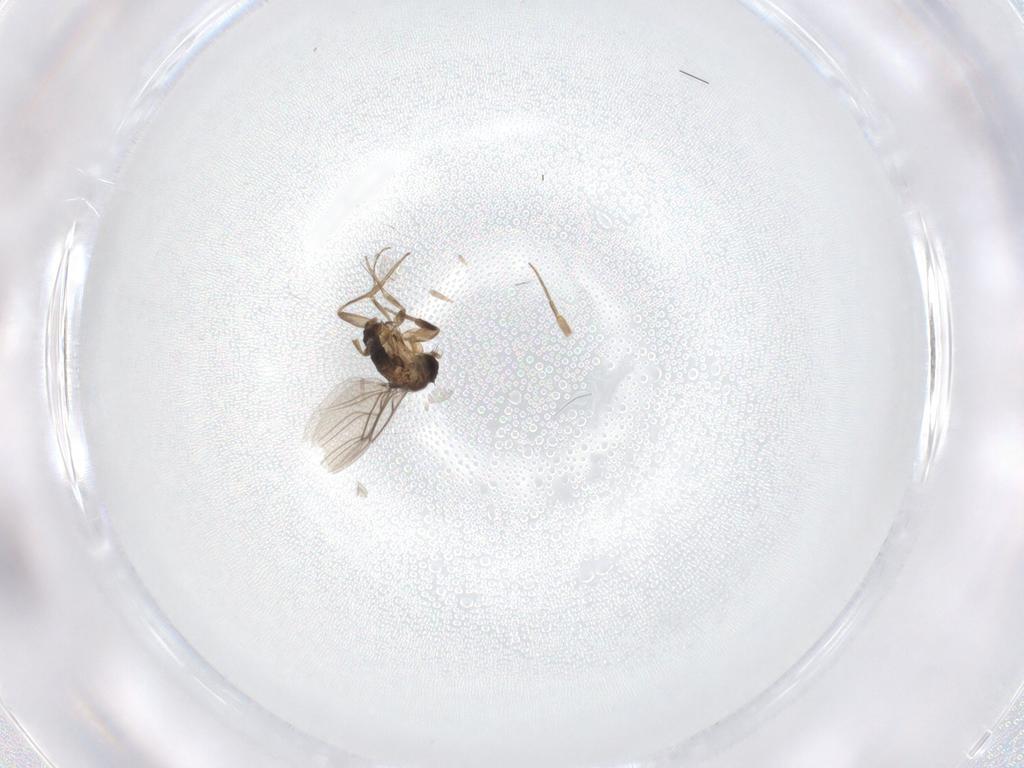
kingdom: Animalia
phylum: Arthropoda
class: Insecta
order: Diptera
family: Phoridae
